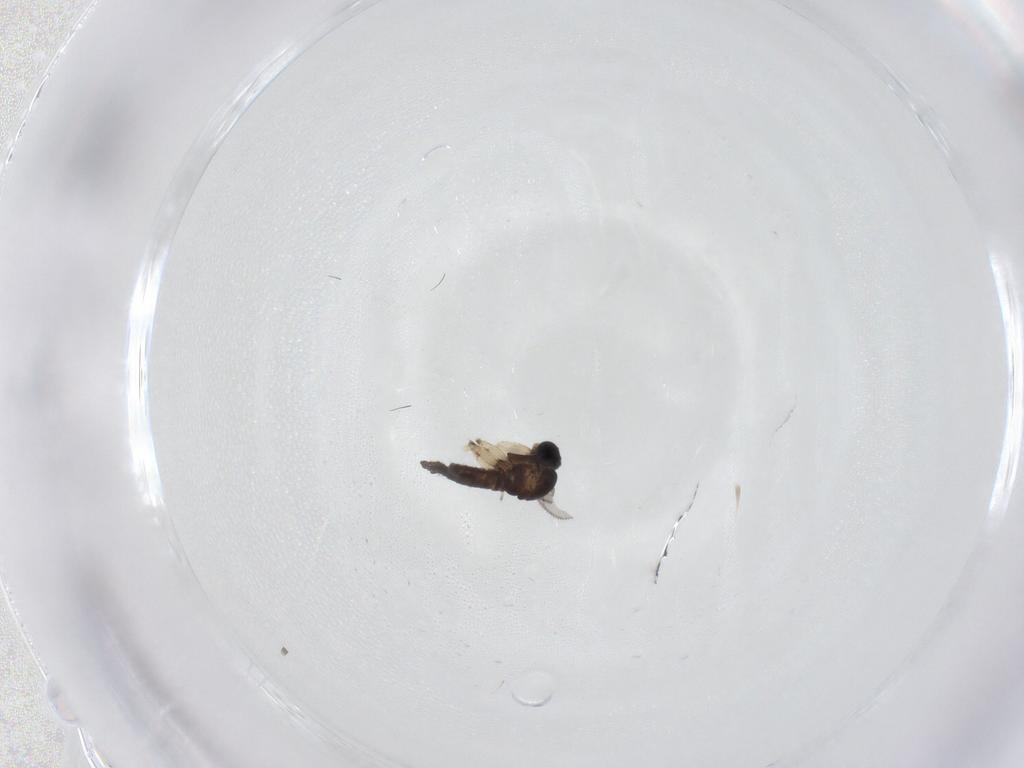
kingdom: Animalia
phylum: Arthropoda
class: Insecta
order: Diptera
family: Sciaridae
